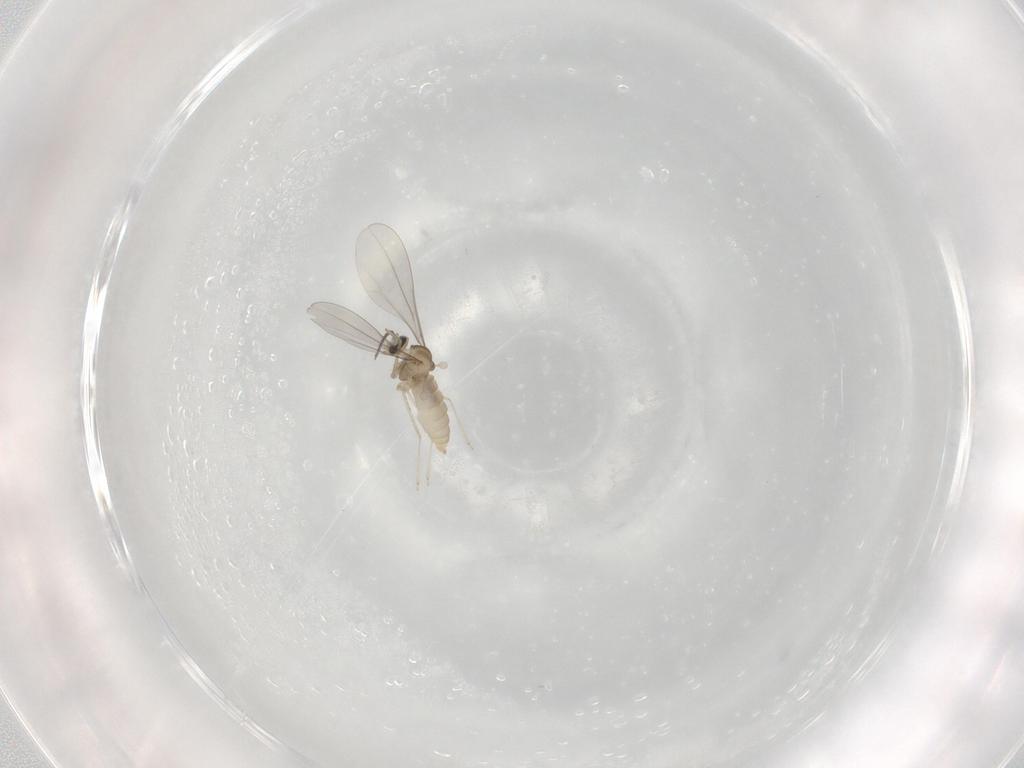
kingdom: Animalia
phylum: Arthropoda
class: Insecta
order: Diptera
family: Cecidomyiidae
